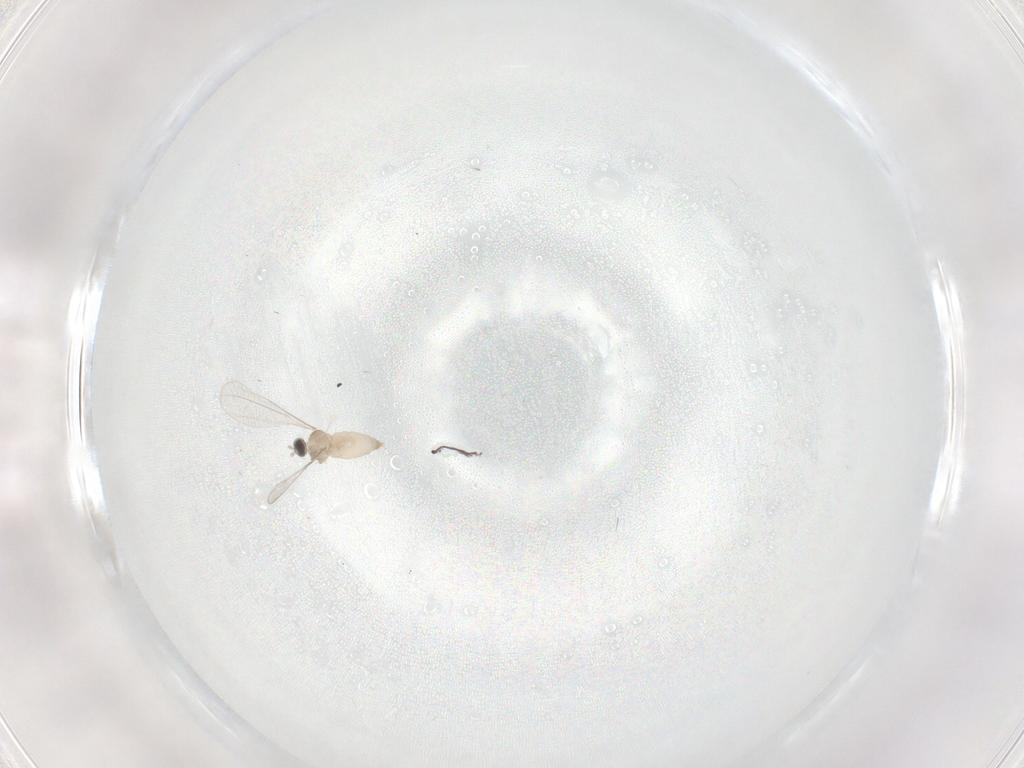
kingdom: Animalia
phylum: Arthropoda
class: Insecta
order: Diptera
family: Cecidomyiidae
